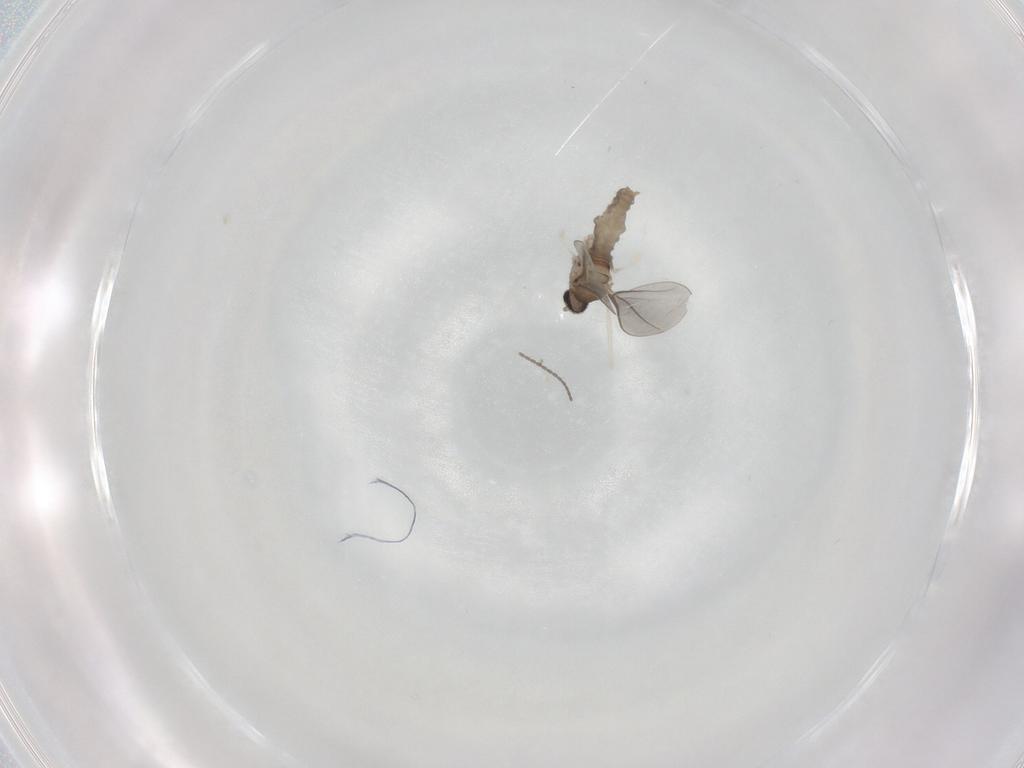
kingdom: Animalia
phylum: Arthropoda
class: Insecta
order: Diptera
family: Cecidomyiidae
